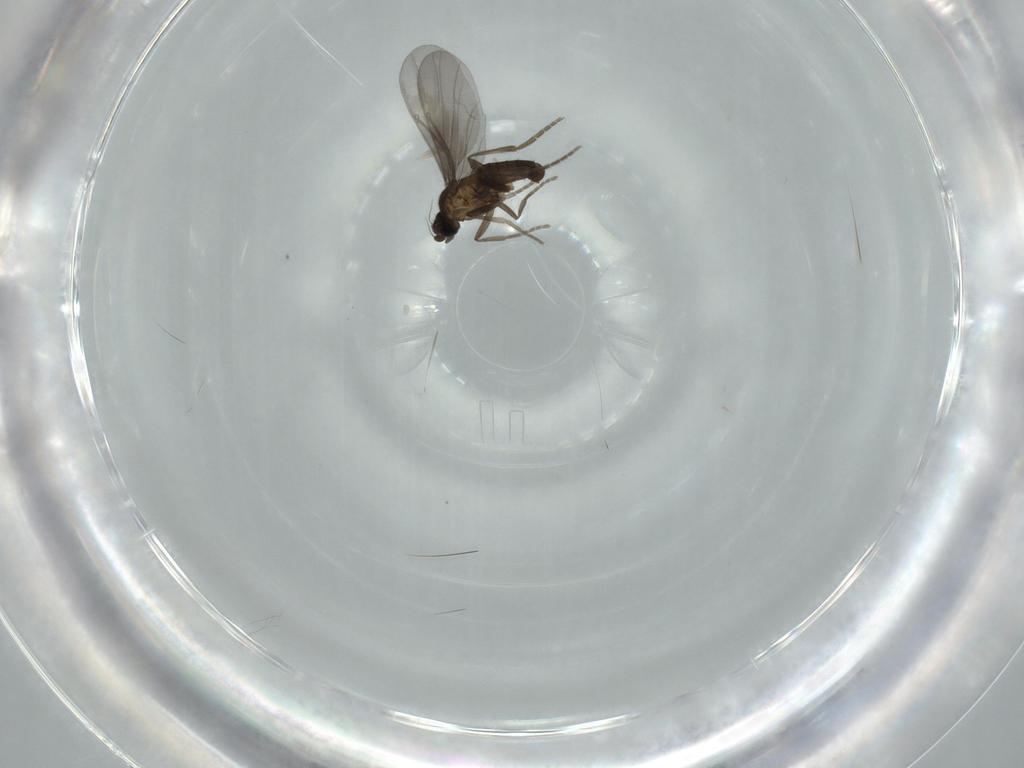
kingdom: Animalia
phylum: Arthropoda
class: Insecta
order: Diptera
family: Phoridae
